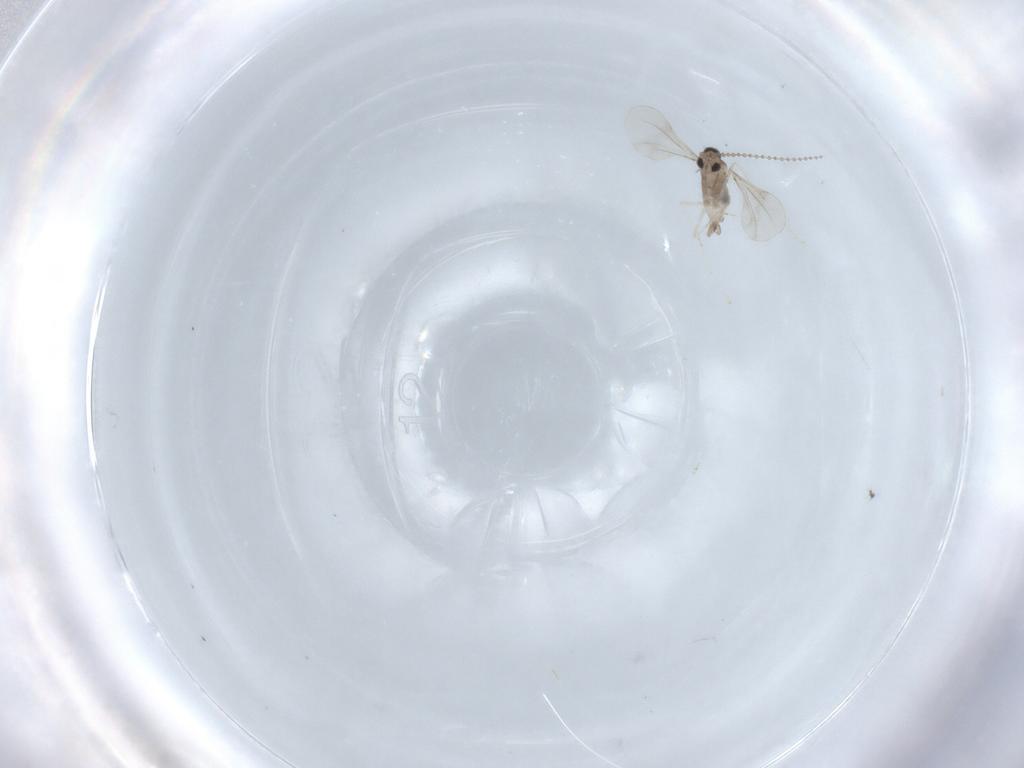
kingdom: Animalia
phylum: Arthropoda
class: Insecta
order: Diptera
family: Cecidomyiidae
